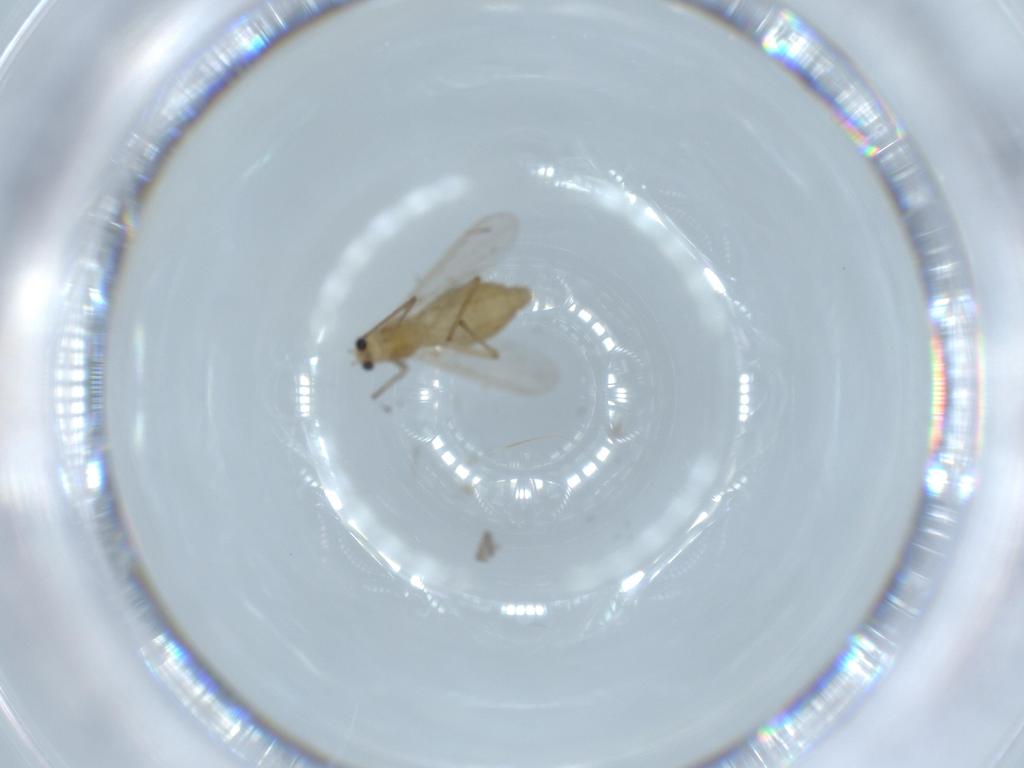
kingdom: Animalia
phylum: Arthropoda
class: Insecta
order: Diptera
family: Chironomidae
